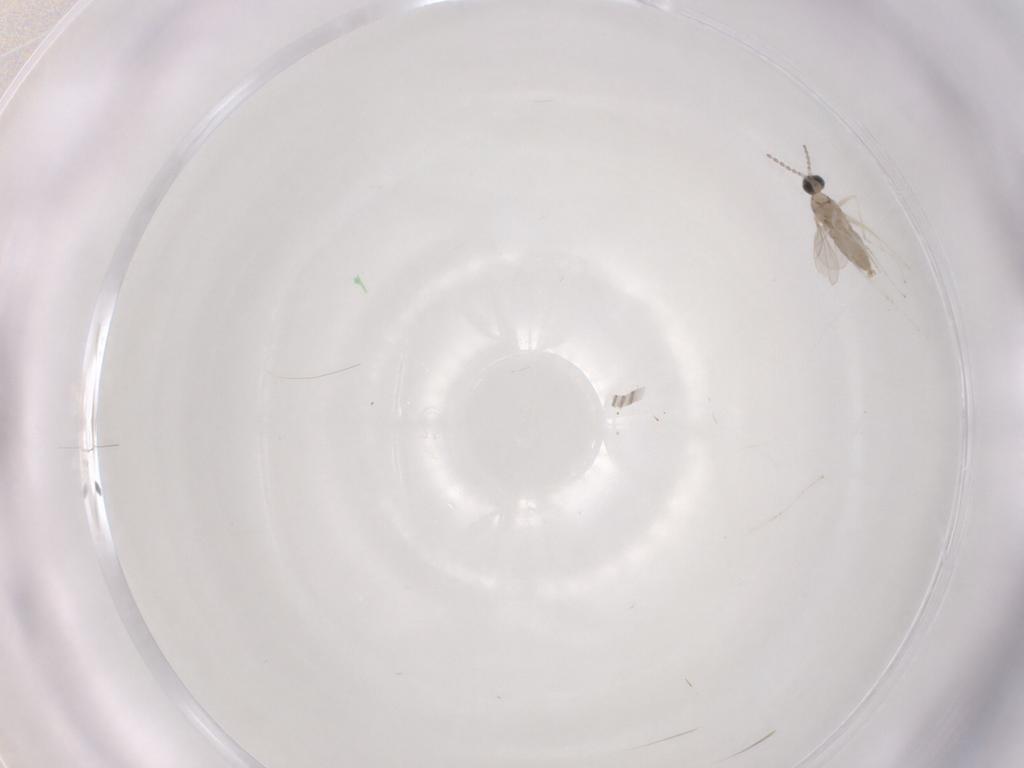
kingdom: Animalia
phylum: Arthropoda
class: Insecta
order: Diptera
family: Cecidomyiidae
